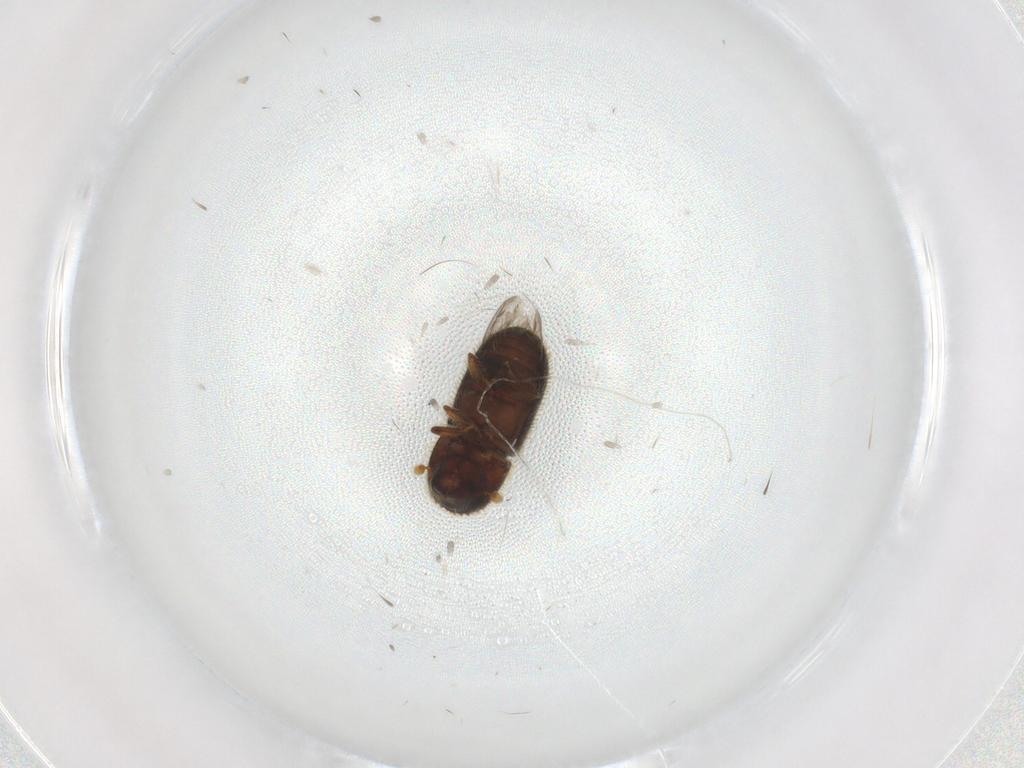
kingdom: Animalia
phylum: Arthropoda
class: Insecta
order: Coleoptera
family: Curculionidae
